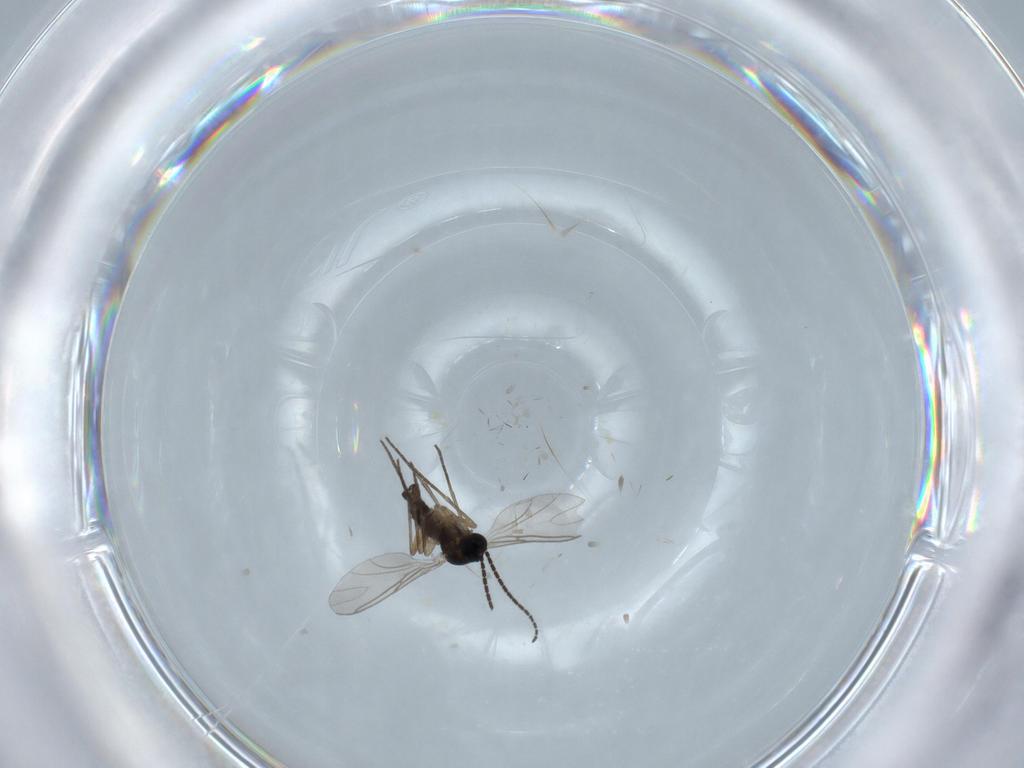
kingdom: Animalia
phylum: Arthropoda
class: Insecta
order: Diptera
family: Sciaridae
